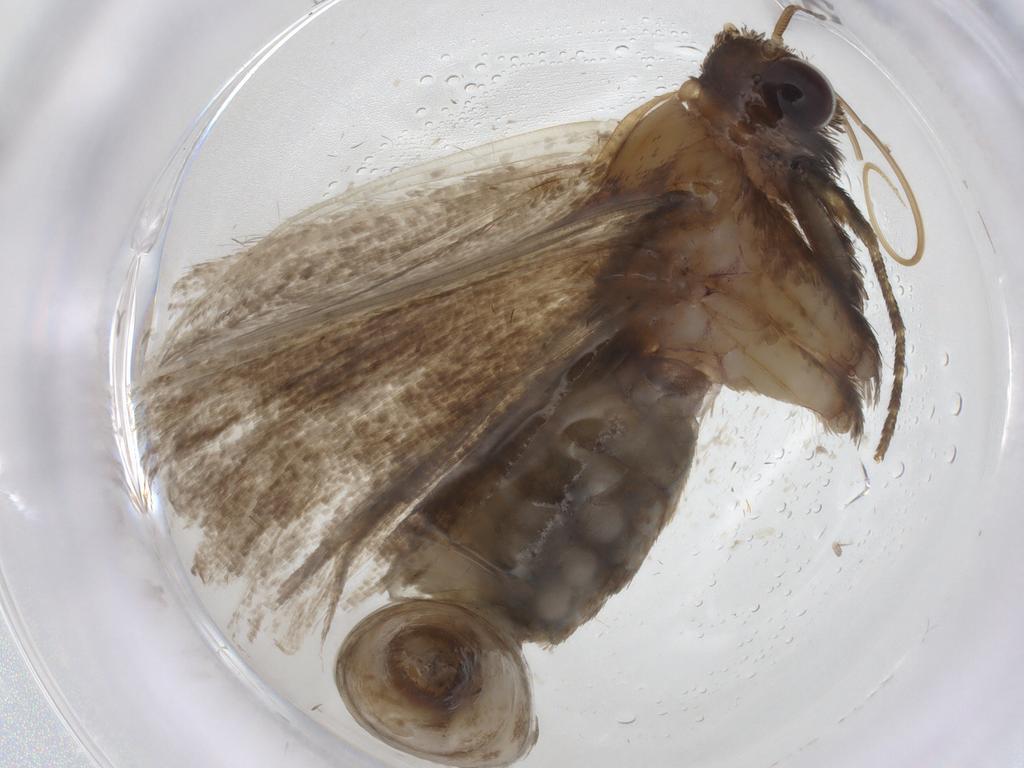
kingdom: Animalia
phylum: Arthropoda
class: Insecta
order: Lepidoptera
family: Erebidae
